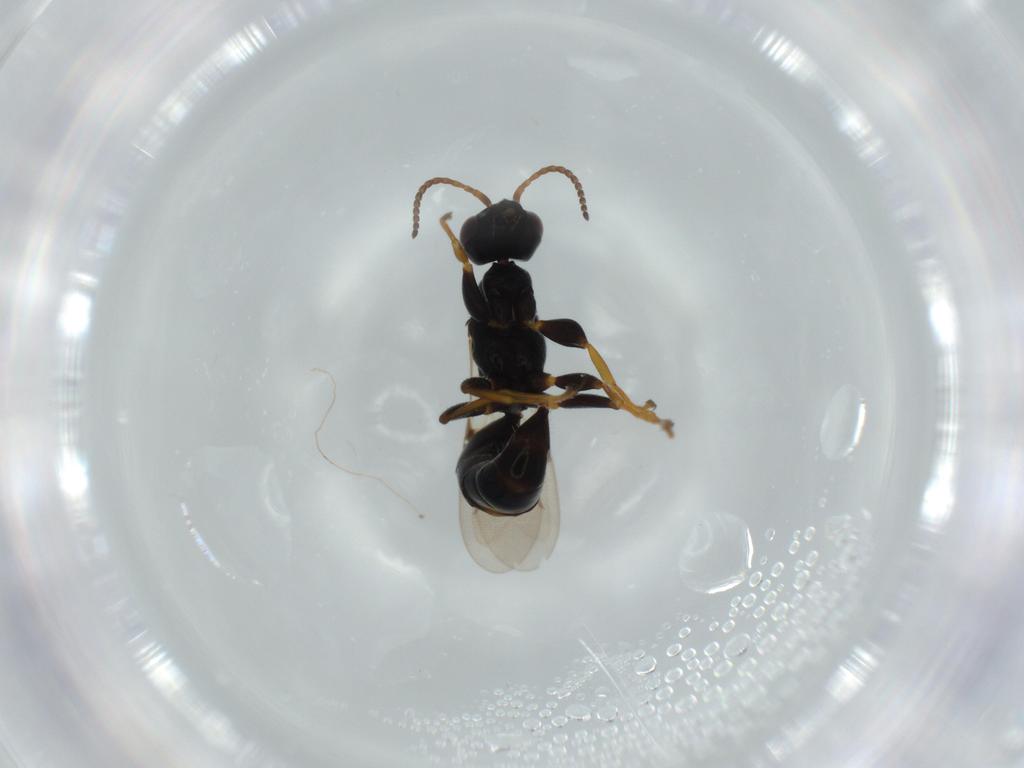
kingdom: Animalia
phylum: Arthropoda
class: Insecta
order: Hymenoptera
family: Bethylidae
